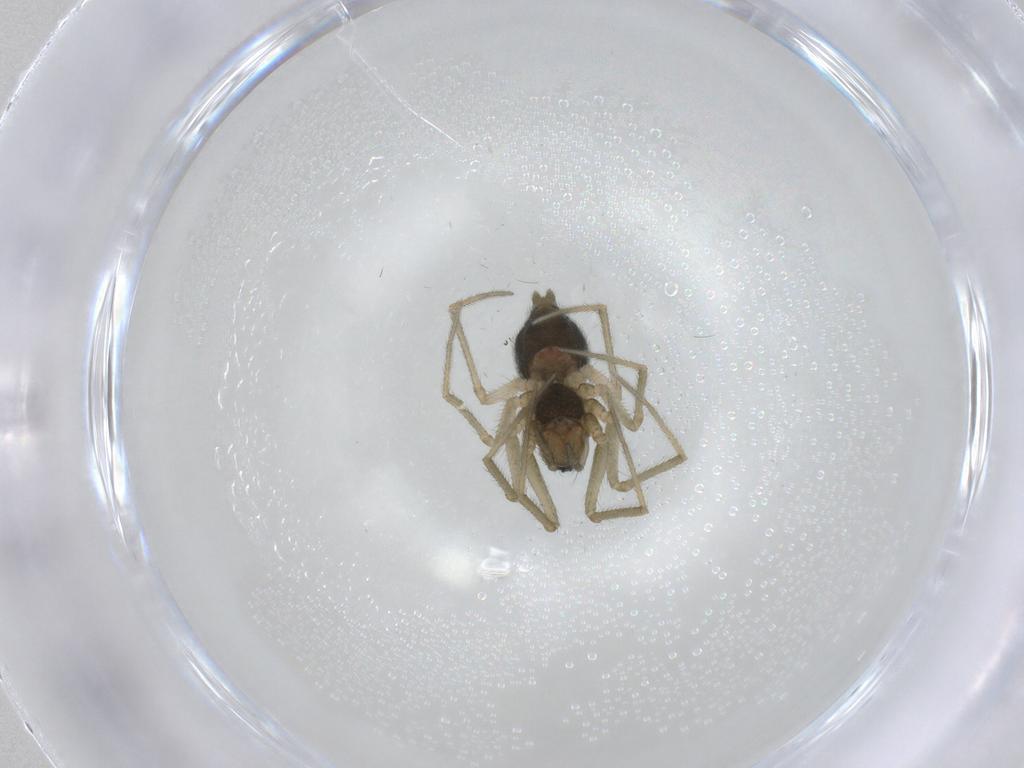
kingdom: Animalia
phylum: Arthropoda
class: Arachnida
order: Araneae
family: Linyphiidae
